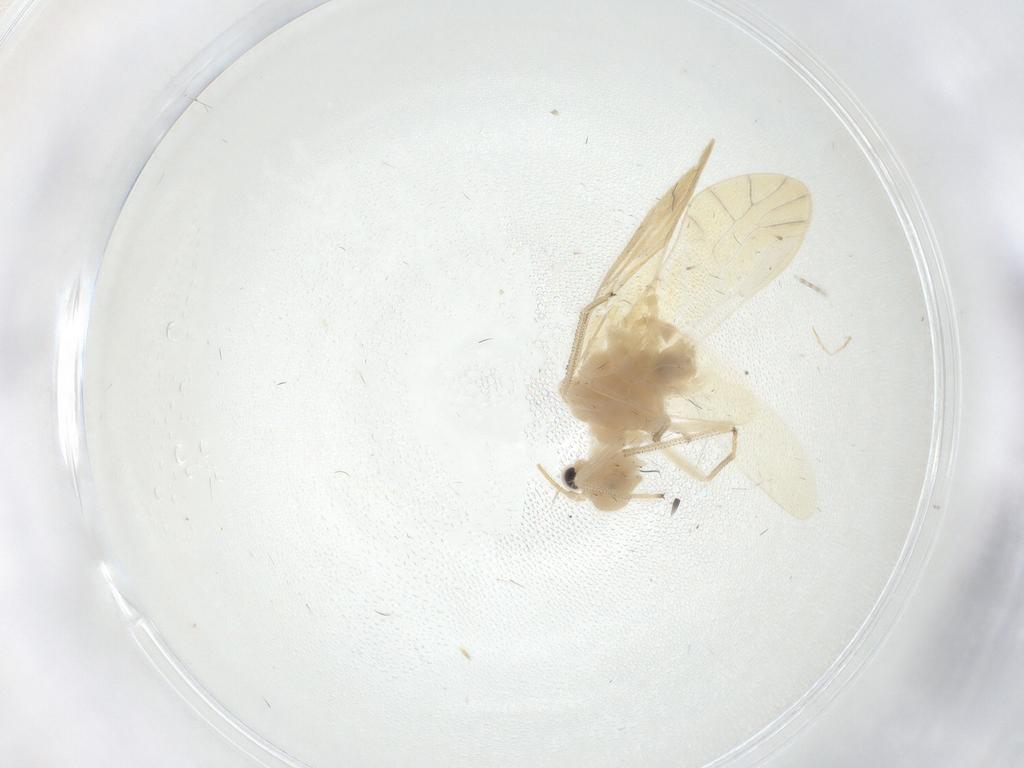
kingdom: Animalia
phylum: Arthropoda
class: Insecta
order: Psocodea
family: Caeciliusidae
